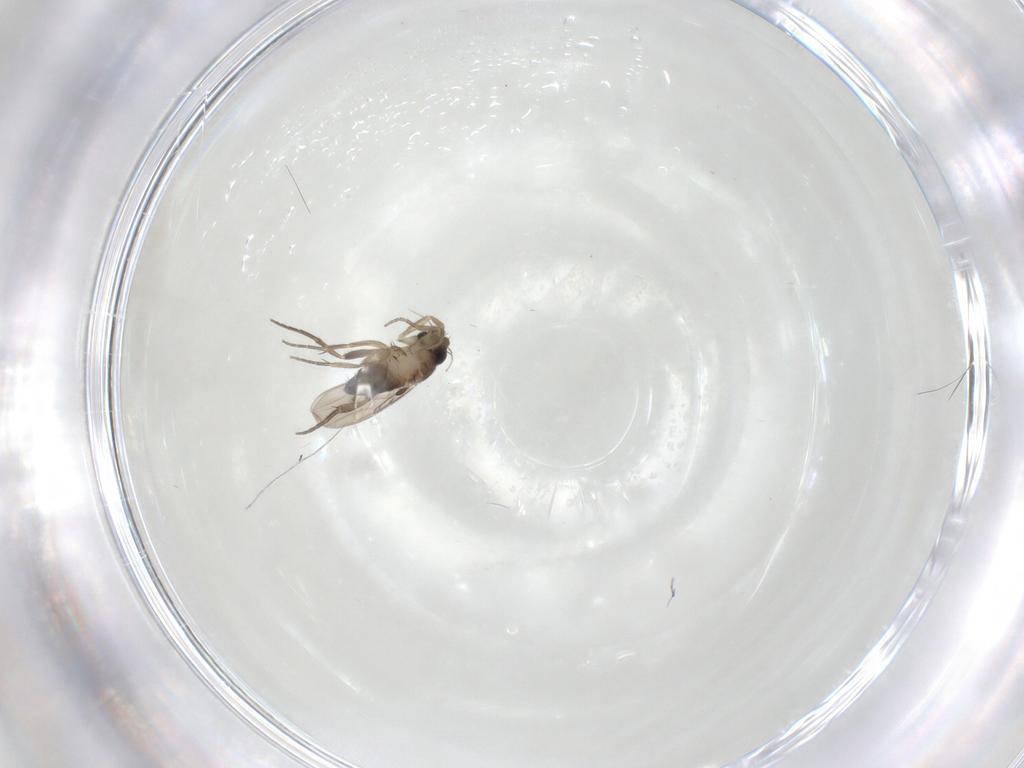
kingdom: Animalia
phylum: Arthropoda
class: Insecta
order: Diptera
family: Phoridae
